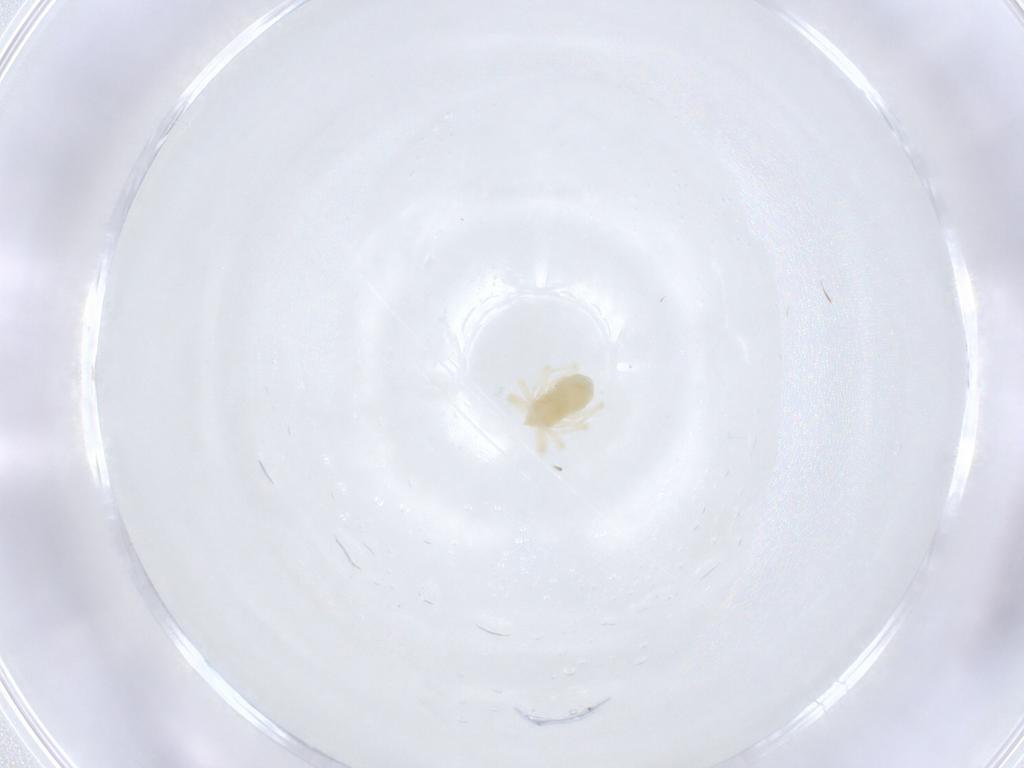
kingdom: Animalia
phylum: Arthropoda
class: Arachnida
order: Trombidiformes
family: Anystidae
